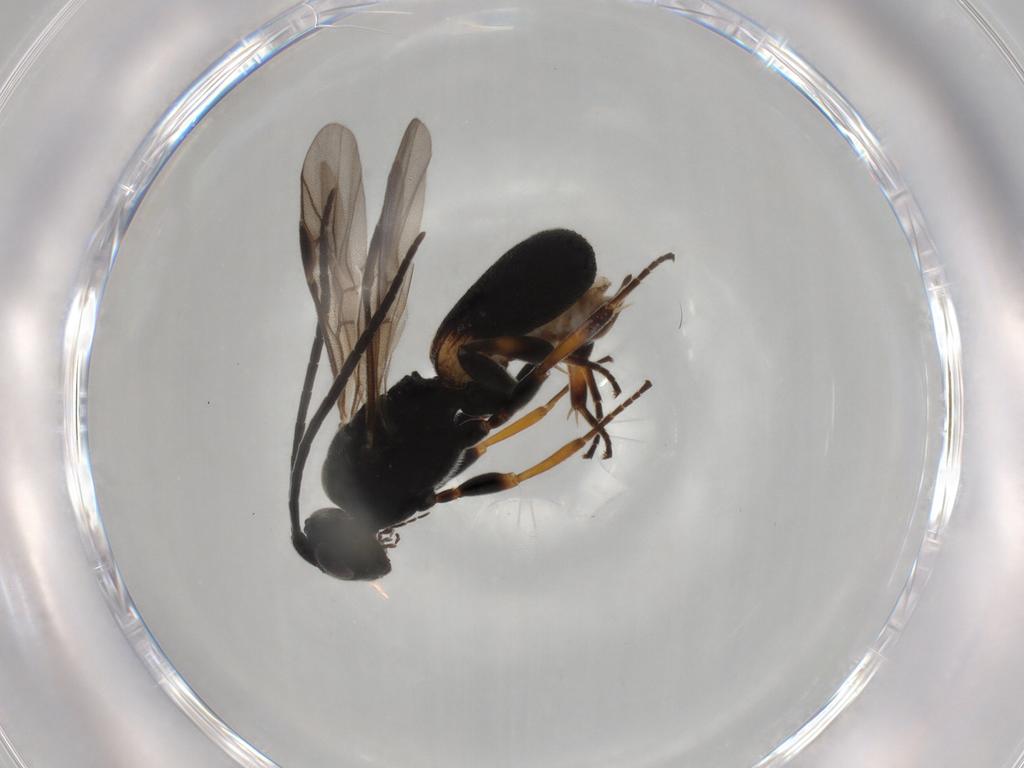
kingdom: Animalia
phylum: Arthropoda
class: Insecta
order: Hymenoptera
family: Braconidae
